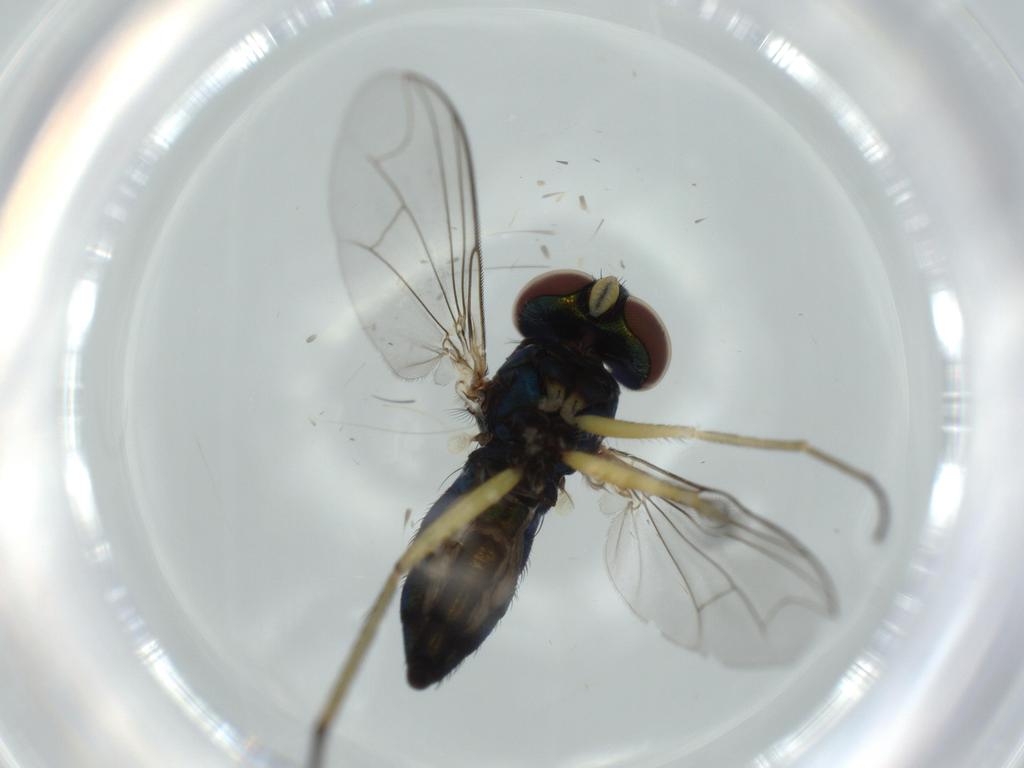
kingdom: Animalia
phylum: Arthropoda
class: Insecta
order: Diptera
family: Dolichopodidae
